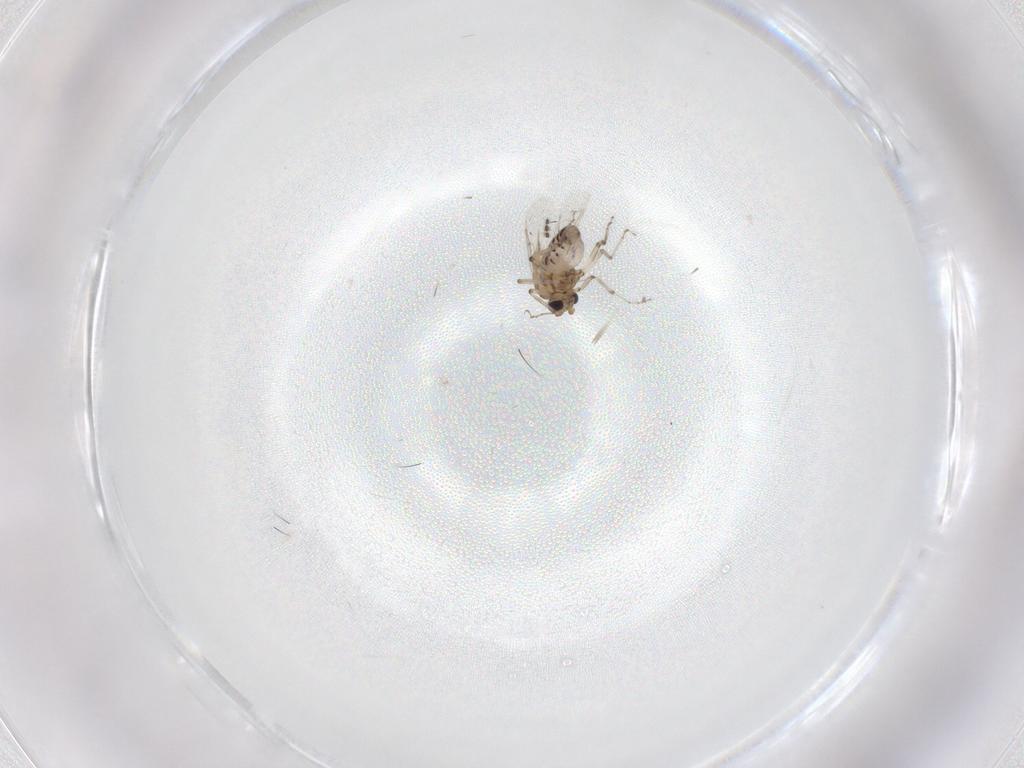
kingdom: Animalia
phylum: Arthropoda
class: Insecta
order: Diptera
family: Ceratopogonidae
